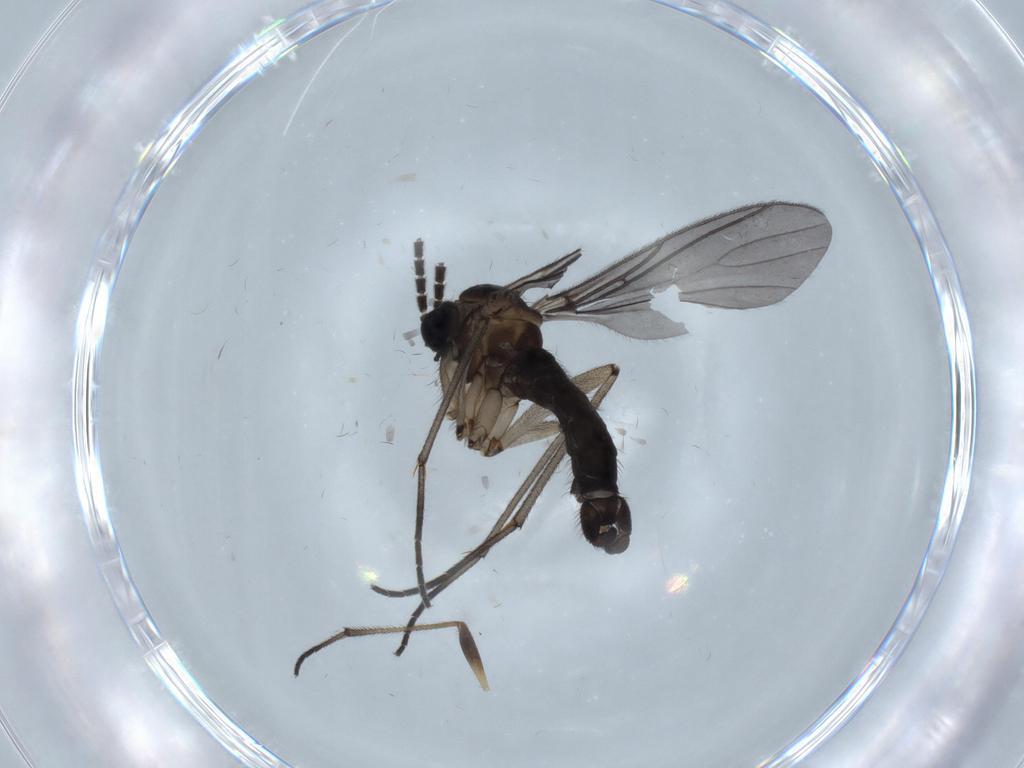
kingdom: Animalia
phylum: Arthropoda
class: Insecta
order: Diptera
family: Sciaridae
